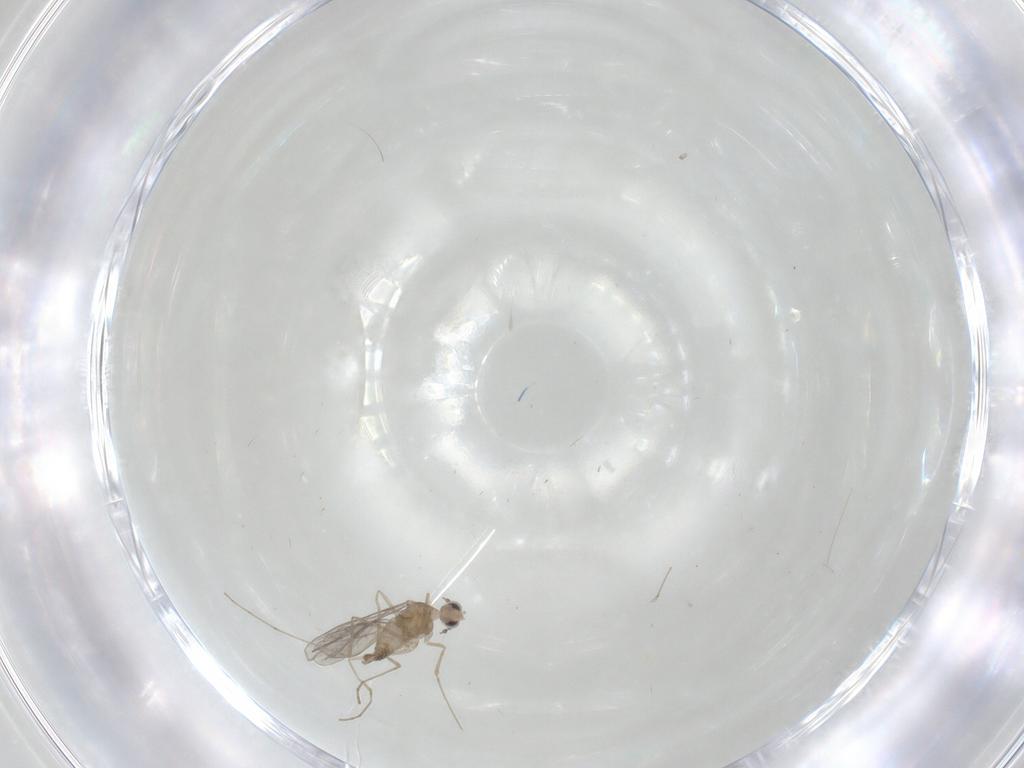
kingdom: Animalia
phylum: Arthropoda
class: Insecta
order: Diptera
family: Cecidomyiidae
